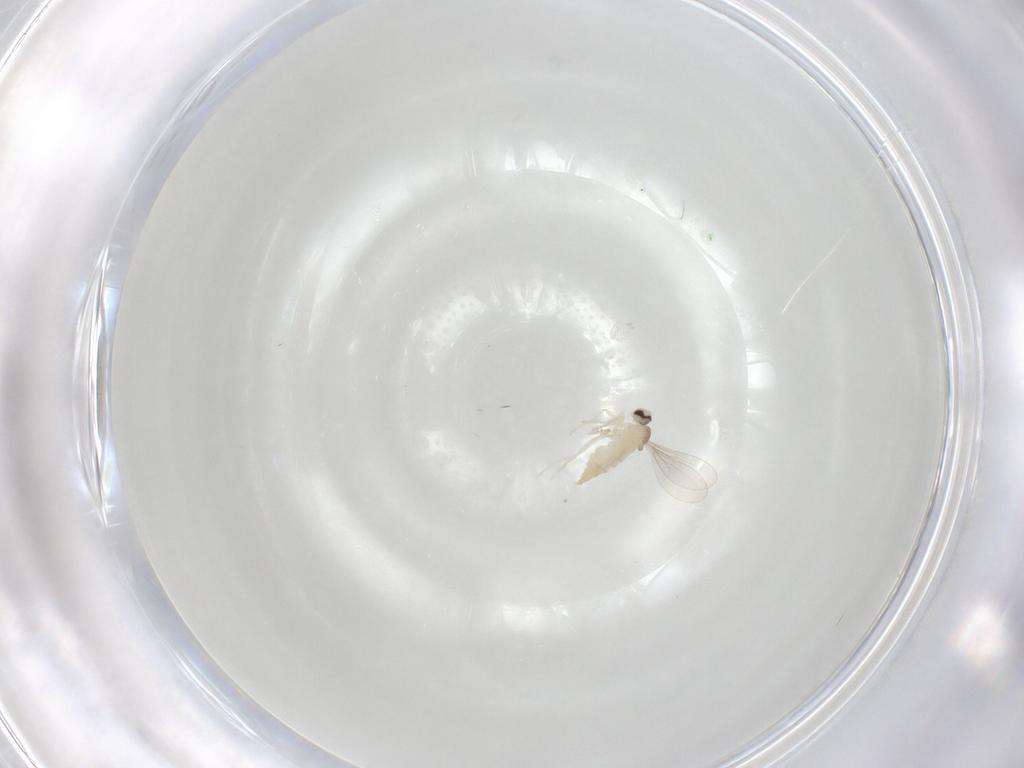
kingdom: Animalia
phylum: Arthropoda
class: Insecta
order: Diptera
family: Cecidomyiidae
